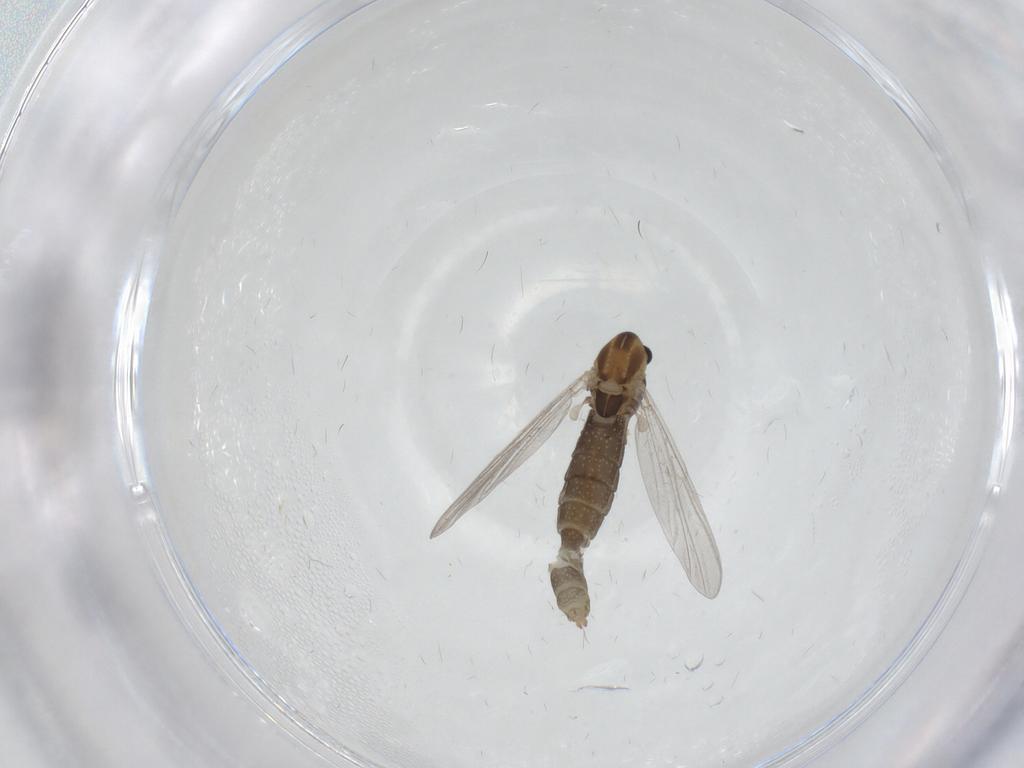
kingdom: Animalia
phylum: Arthropoda
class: Insecta
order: Diptera
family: Chironomidae
